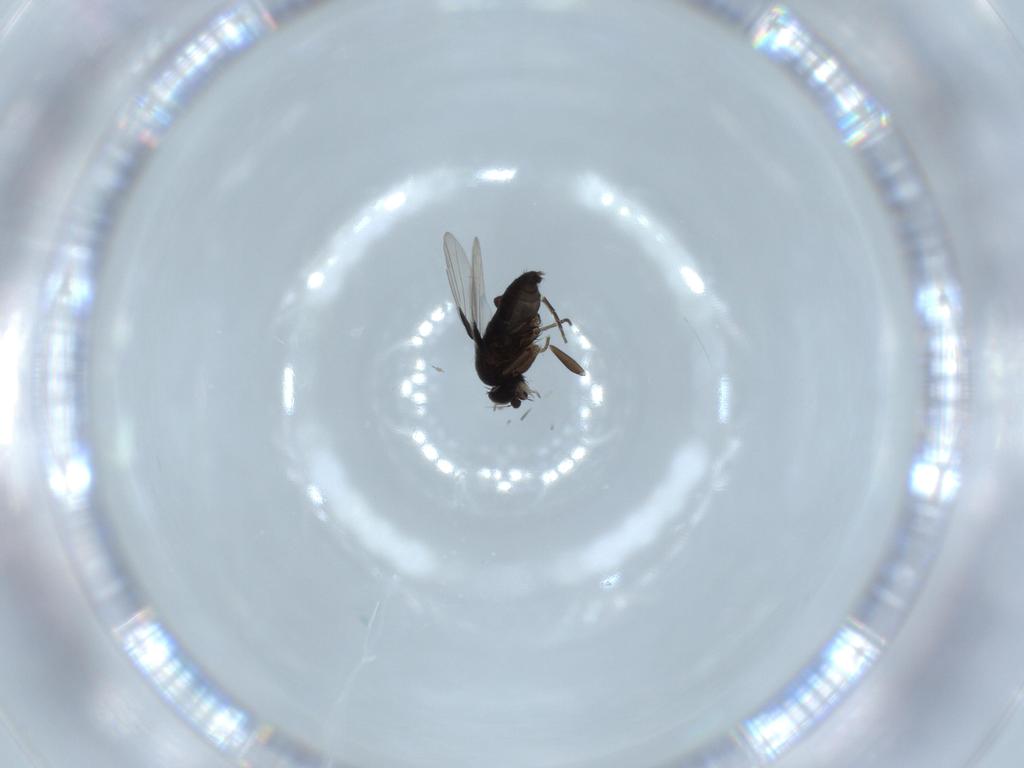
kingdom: Animalia
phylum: Arthropoda
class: Insecta
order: Diptera
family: Phoridae
